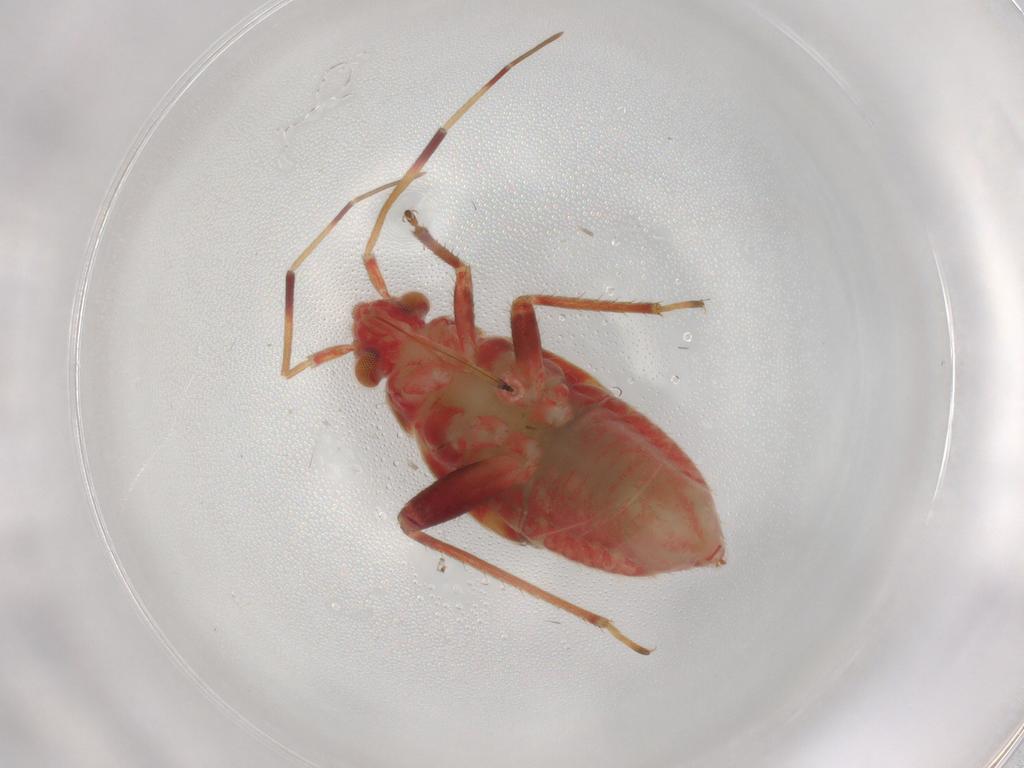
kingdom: Animalia
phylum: Arthropoda
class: Insecta
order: Hemiptera
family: Miridae
